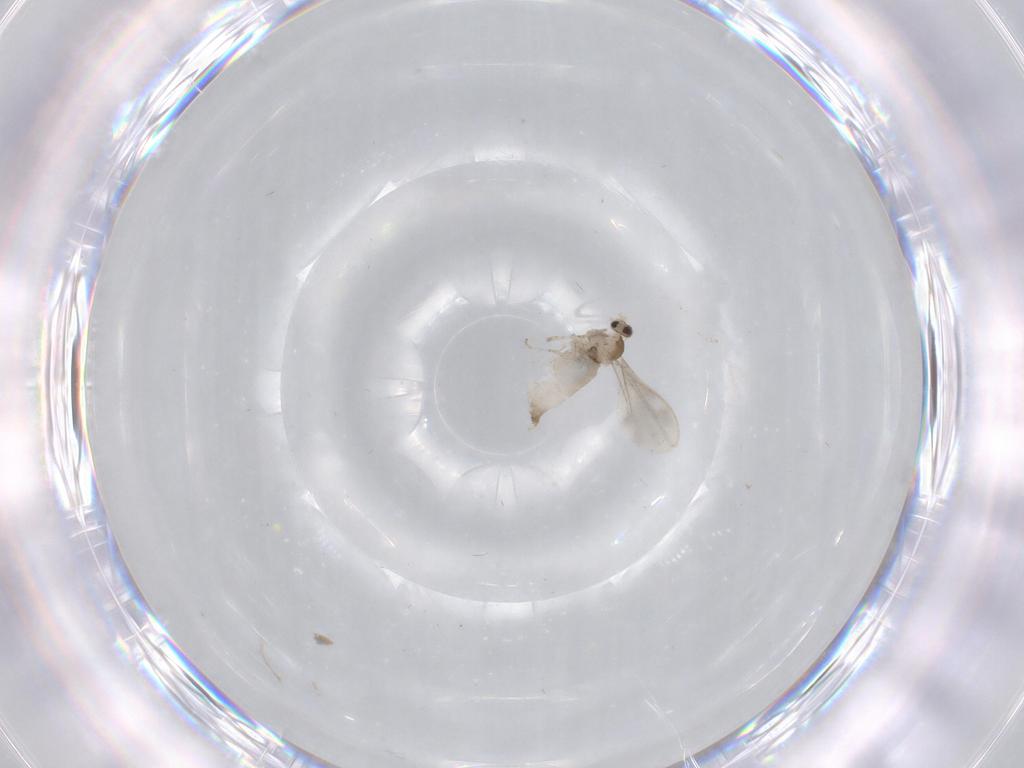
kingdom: Animalia
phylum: Arthropoda
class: Insecta
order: Diptera
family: Cecidomyiidae
